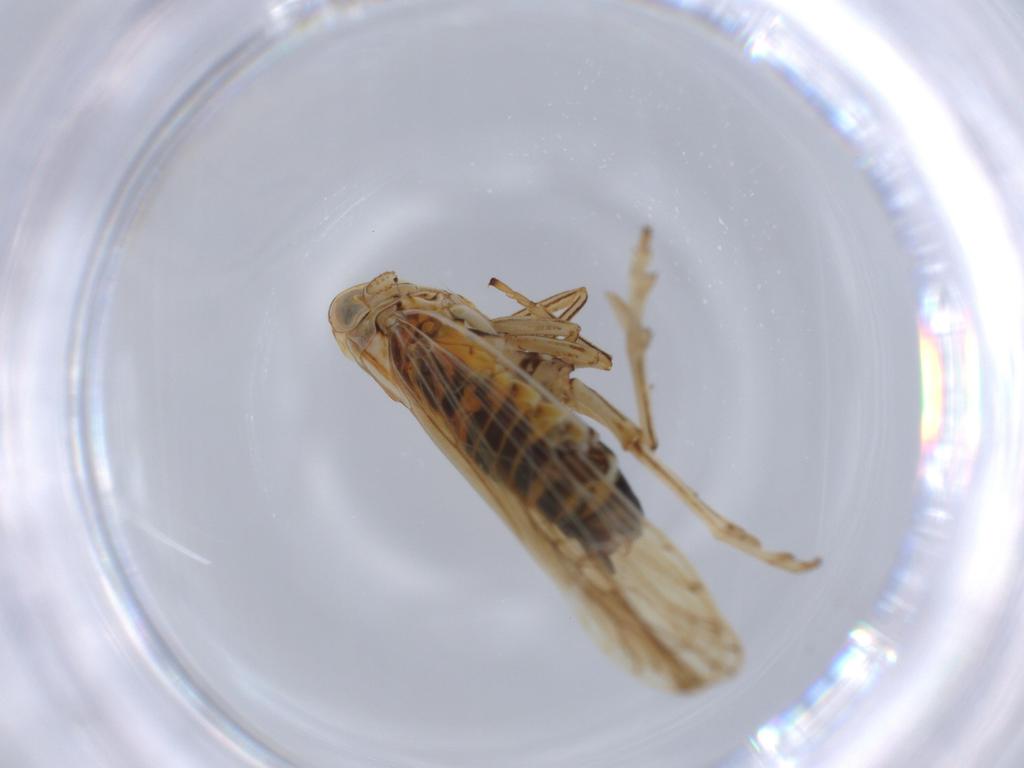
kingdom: Animalia
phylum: Arthropoda
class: Insecta
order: Hemiptera
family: Delphacidae
